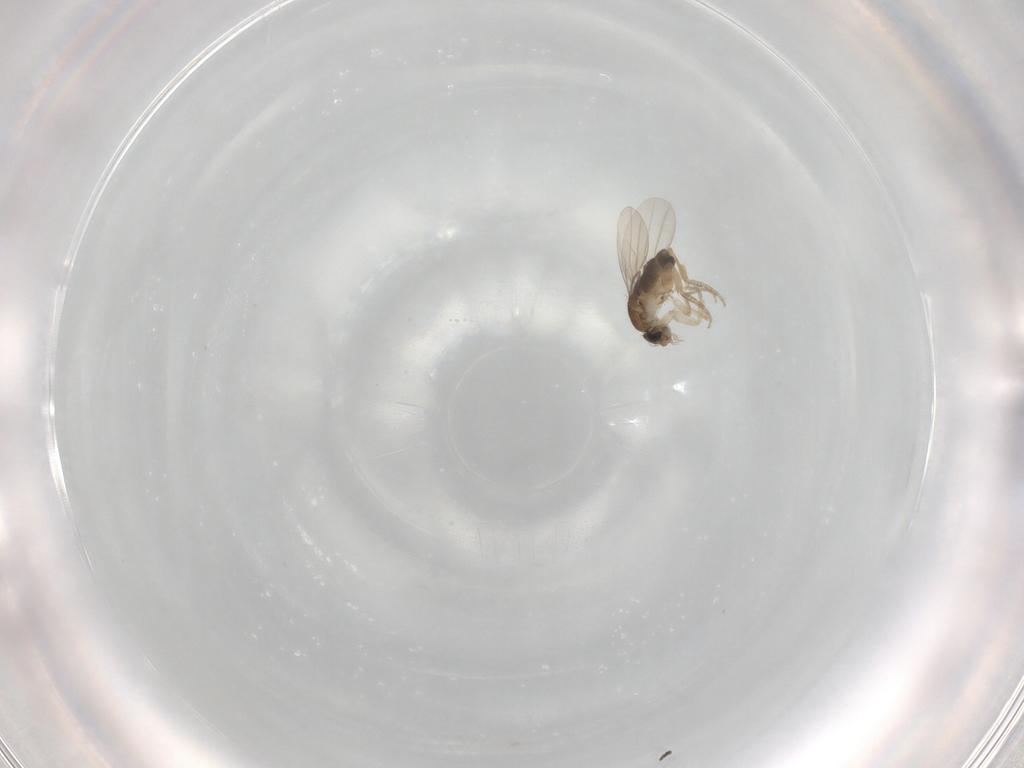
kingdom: Animalia
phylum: Arthropoda
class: Insecta
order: Diptera
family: Phoridae
